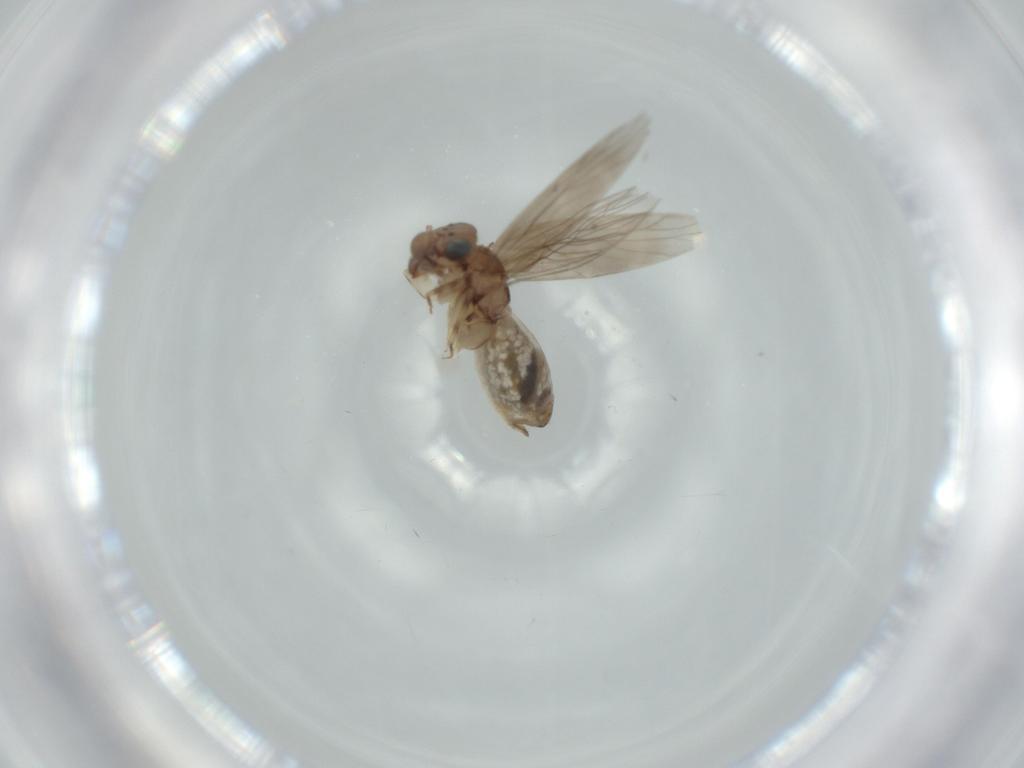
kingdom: Animalia
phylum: Arthropoda
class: Insecta
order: Psocodea
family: Lepidopsocidae
